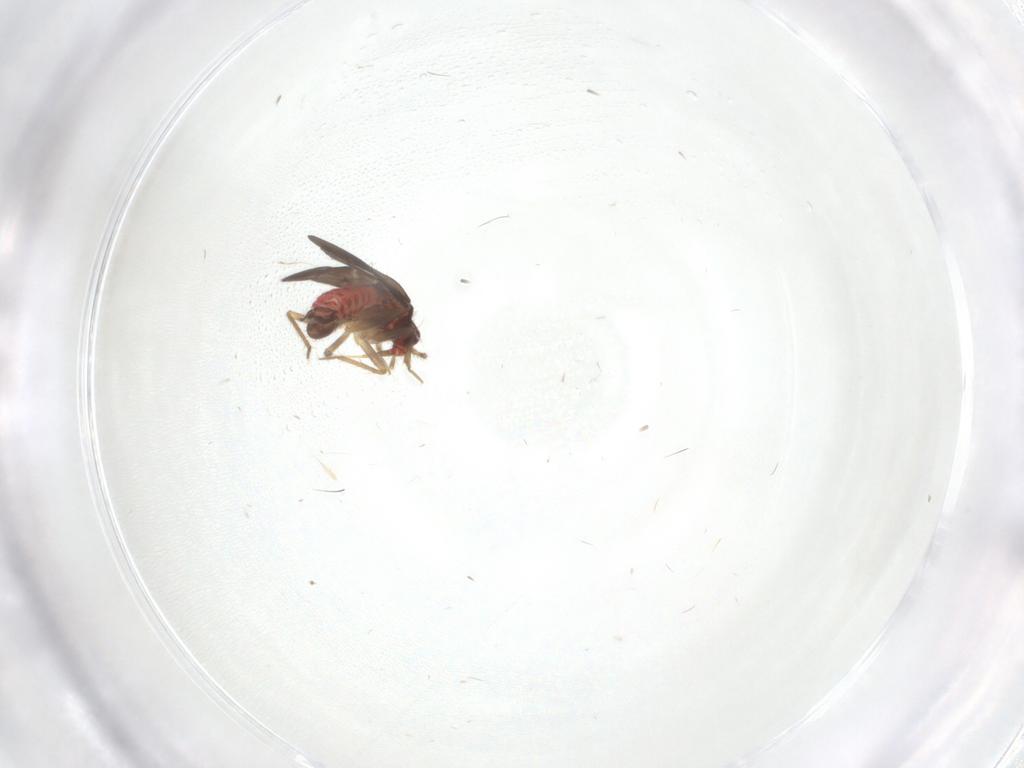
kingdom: Animalia
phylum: Arthropoda
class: Insecta
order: Hemiptera
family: Ceratocombidae
